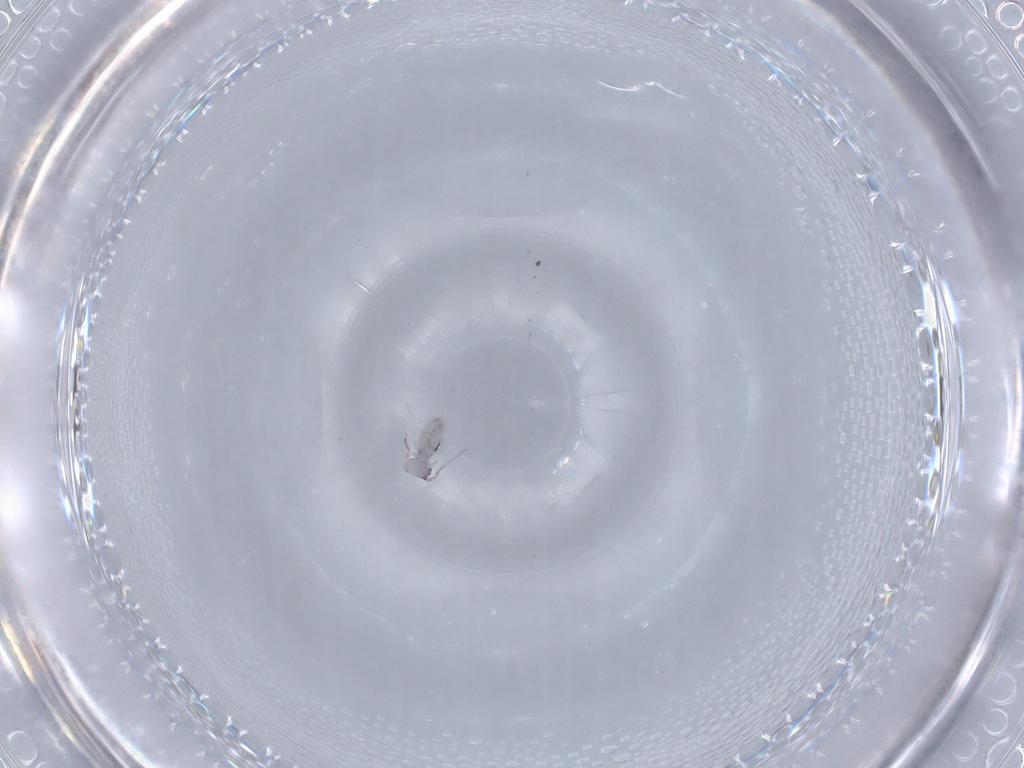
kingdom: Animalia
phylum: Arthropoda
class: Collembola
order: Symphypleona
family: Bourletiellidae
